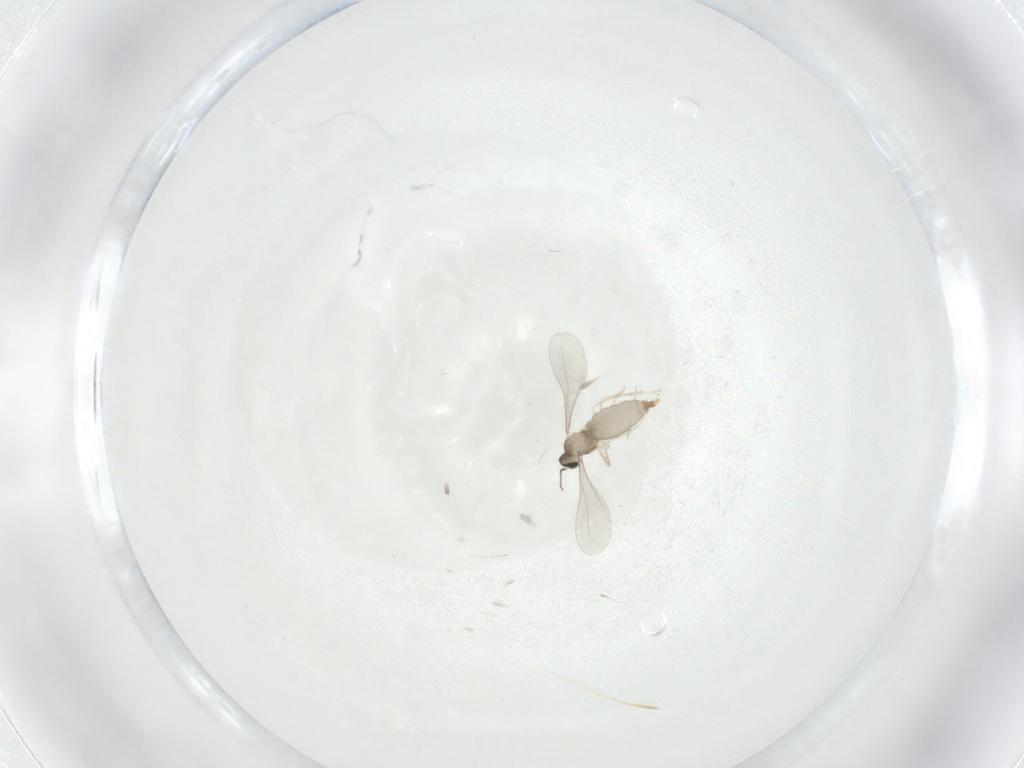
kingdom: Animalia
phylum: Arthropoda
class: Insecta
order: Diptera
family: Syrphidae
